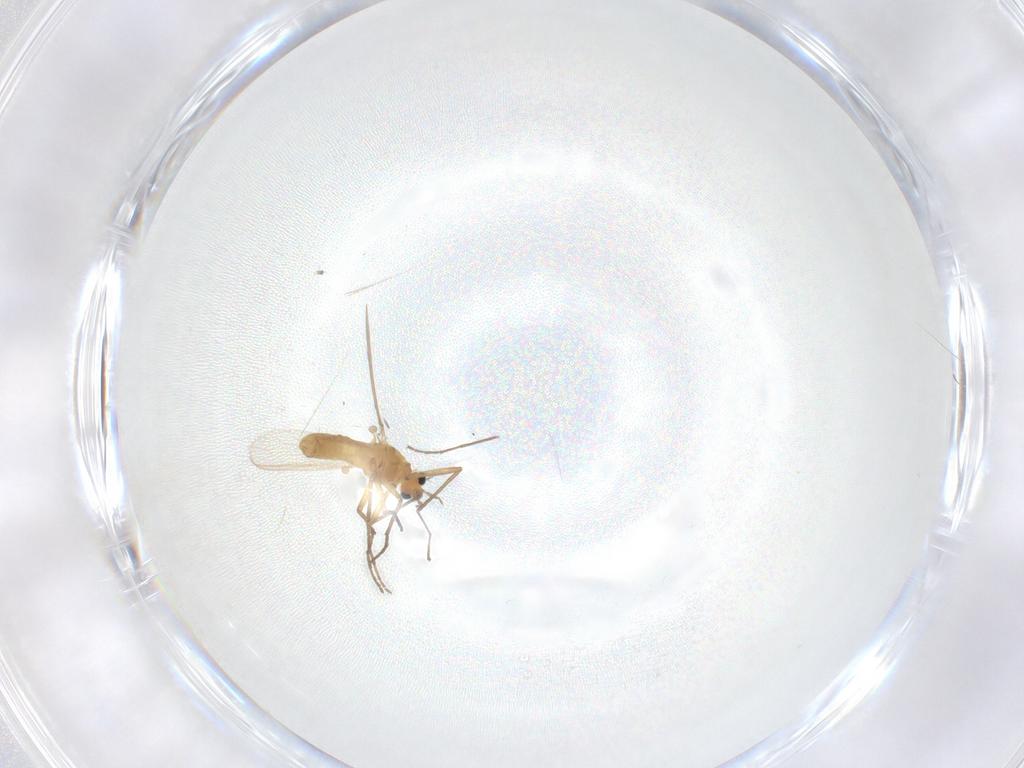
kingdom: Animalia
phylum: Arthropoda
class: Insecta
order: Diptera
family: Chironomidae
